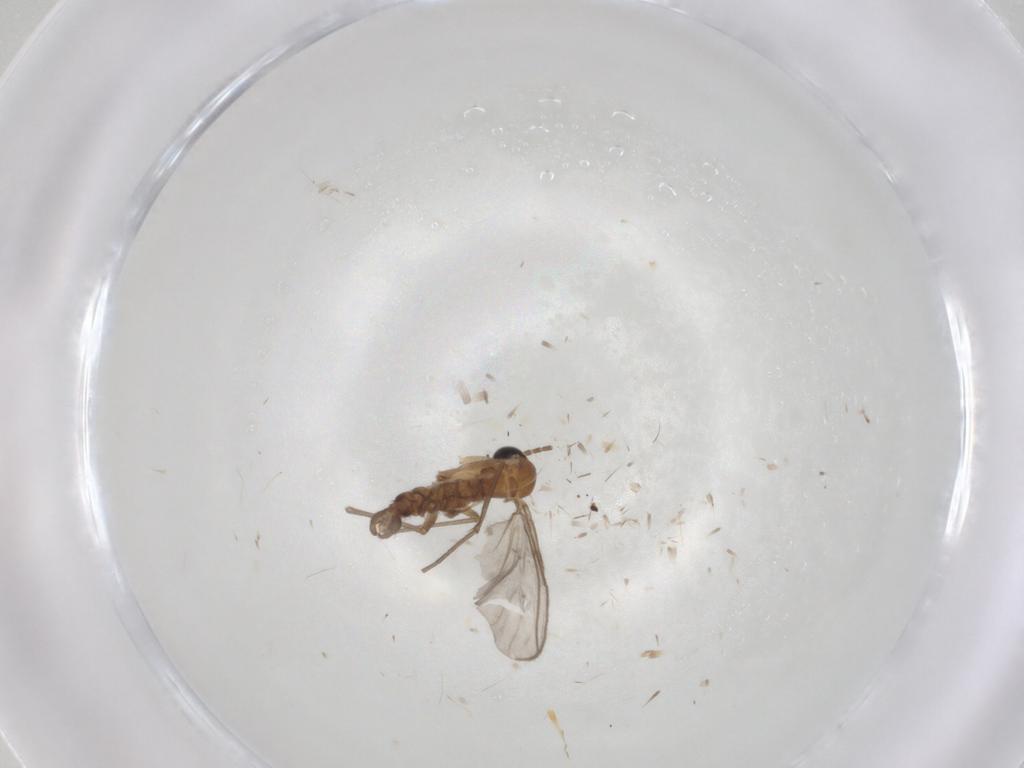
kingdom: Animalia
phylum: Arthropoda
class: Insecta
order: Diptera
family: Sciaridae
